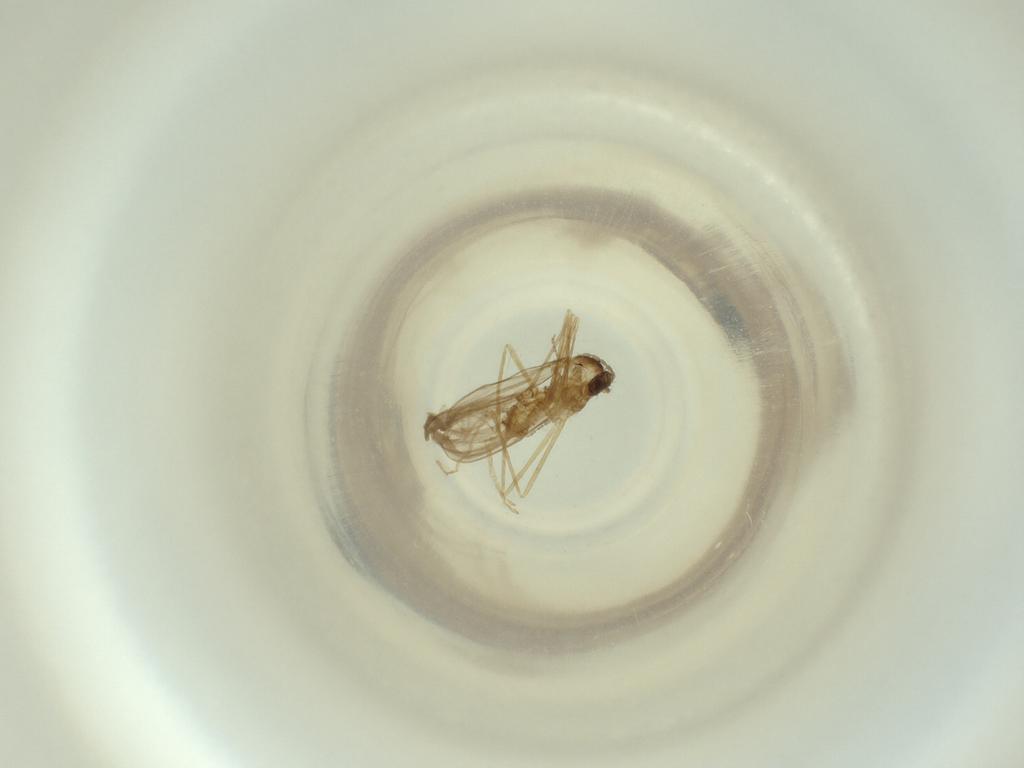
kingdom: Animalia
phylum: Arthropoda
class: Insecta
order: Diptera
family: Cecidomyiidae
